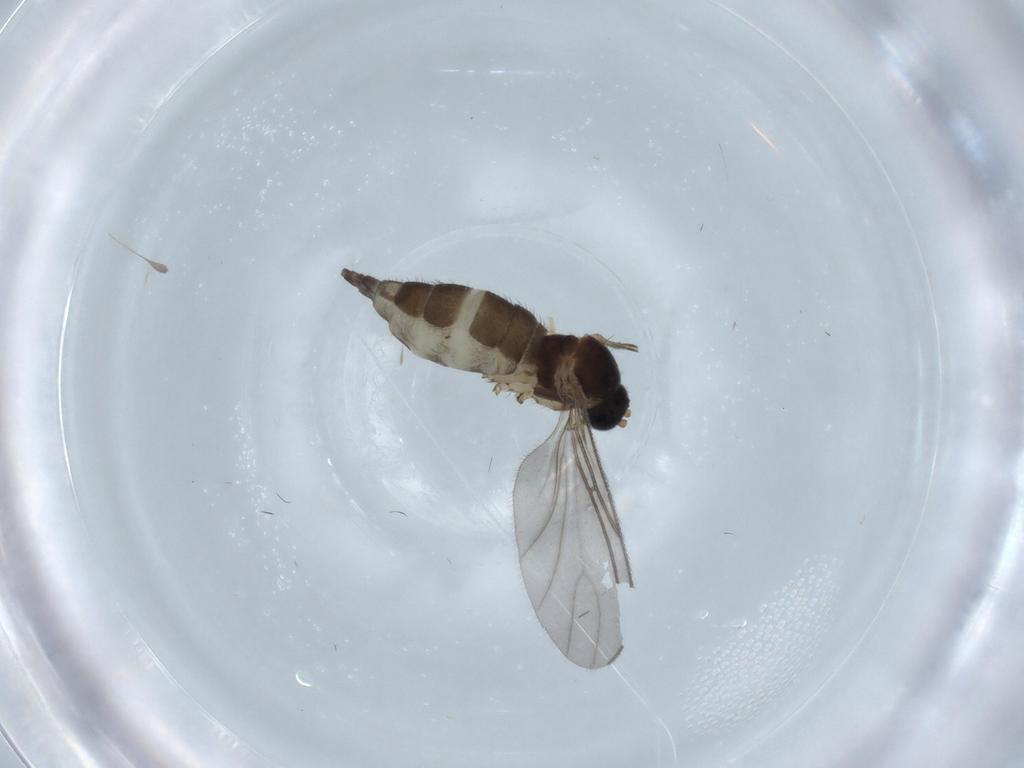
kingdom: Animalia
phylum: Arthropoda
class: Insecta
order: Diptera
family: Sciaridae
